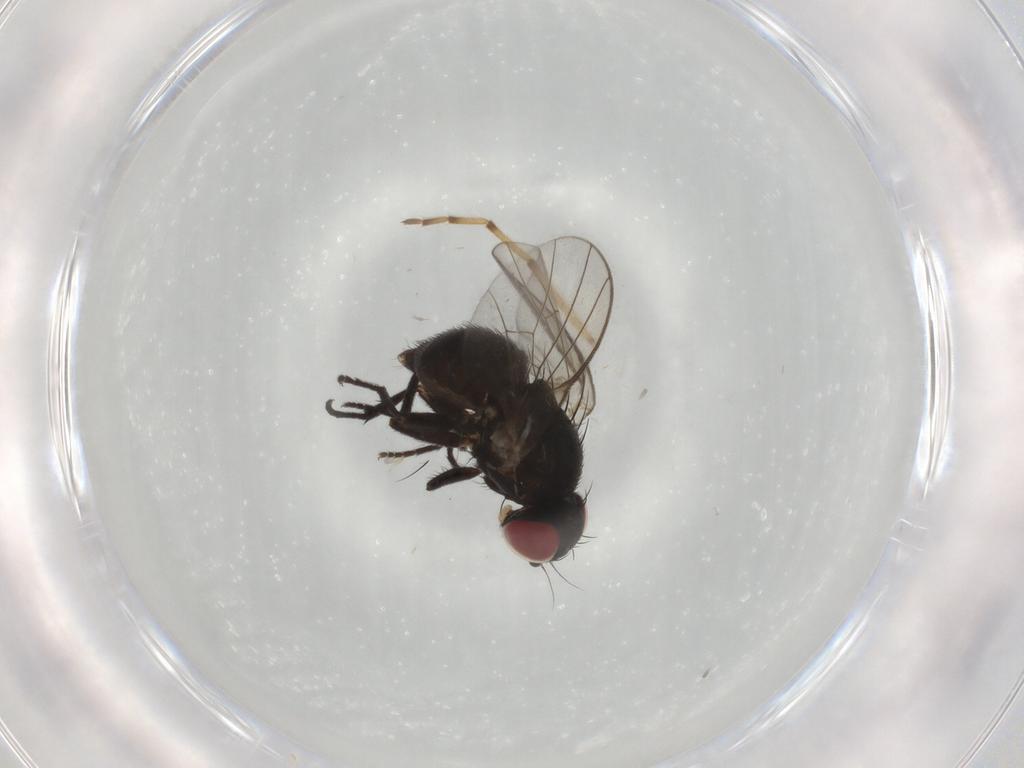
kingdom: Animalia
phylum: Arthropoda
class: Insecta
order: Diptera
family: Agromyzidae
